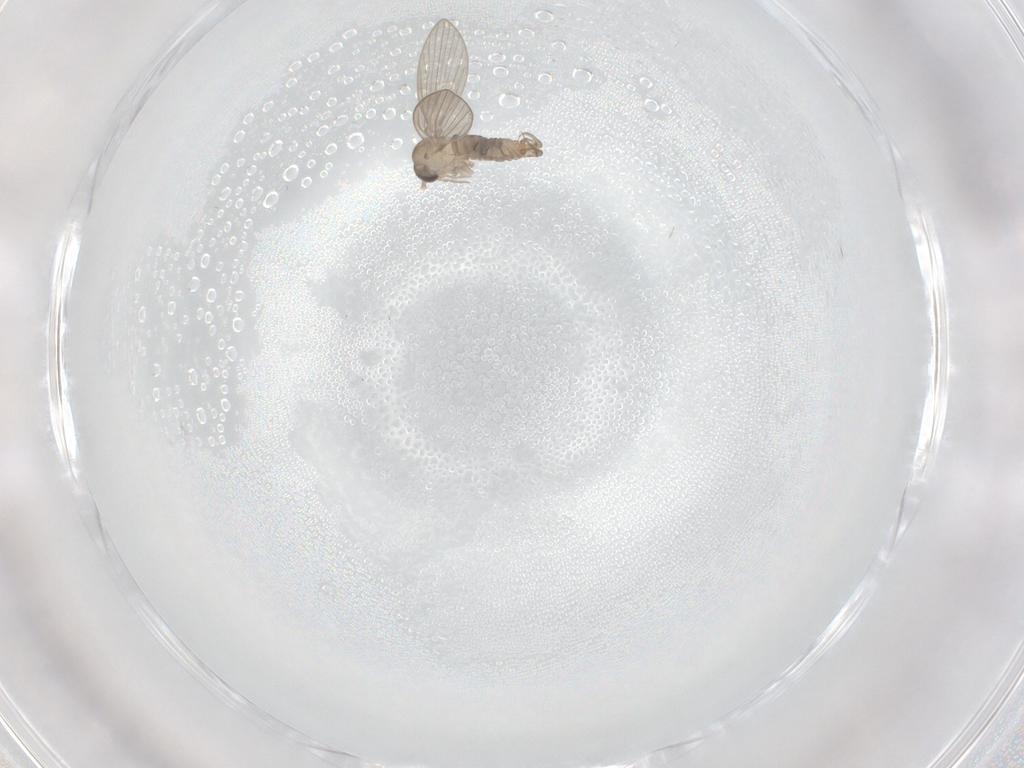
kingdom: Animalia
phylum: Arthropoda
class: Insecta
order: Diptera
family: Psychodidae
